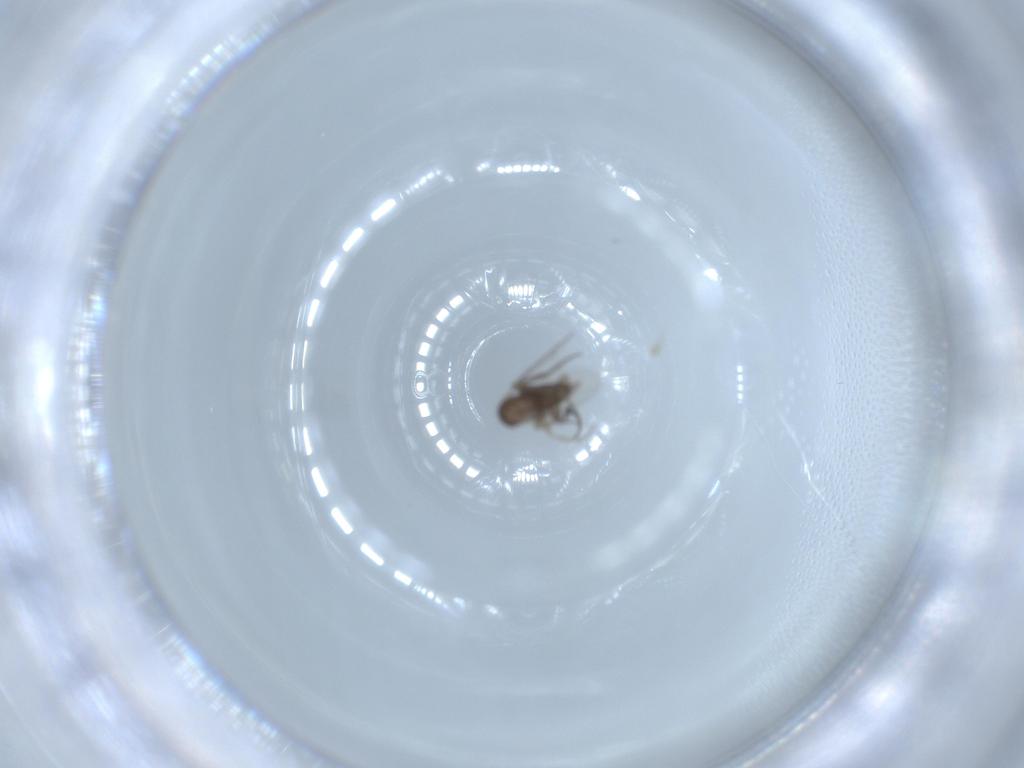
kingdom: Animalia
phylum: Arthropoda
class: Insecta
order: Diptera
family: Phoridae
